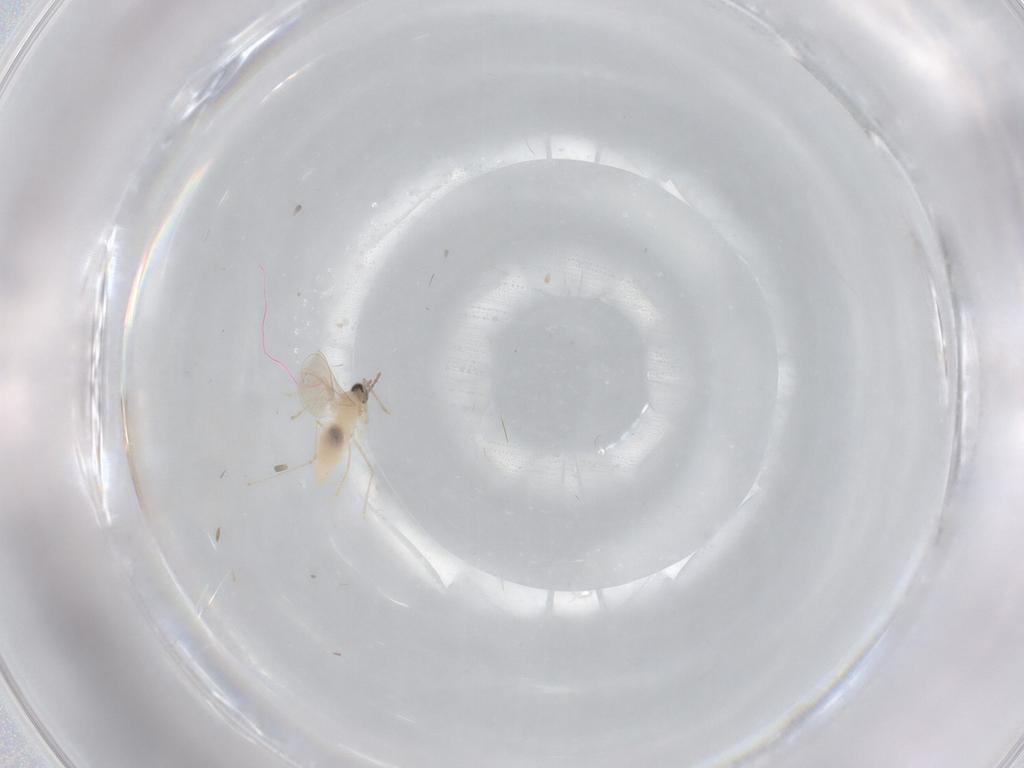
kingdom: Animalia
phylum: Arthropoda
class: Insecta
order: Diptera
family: Cecidomyiidae
